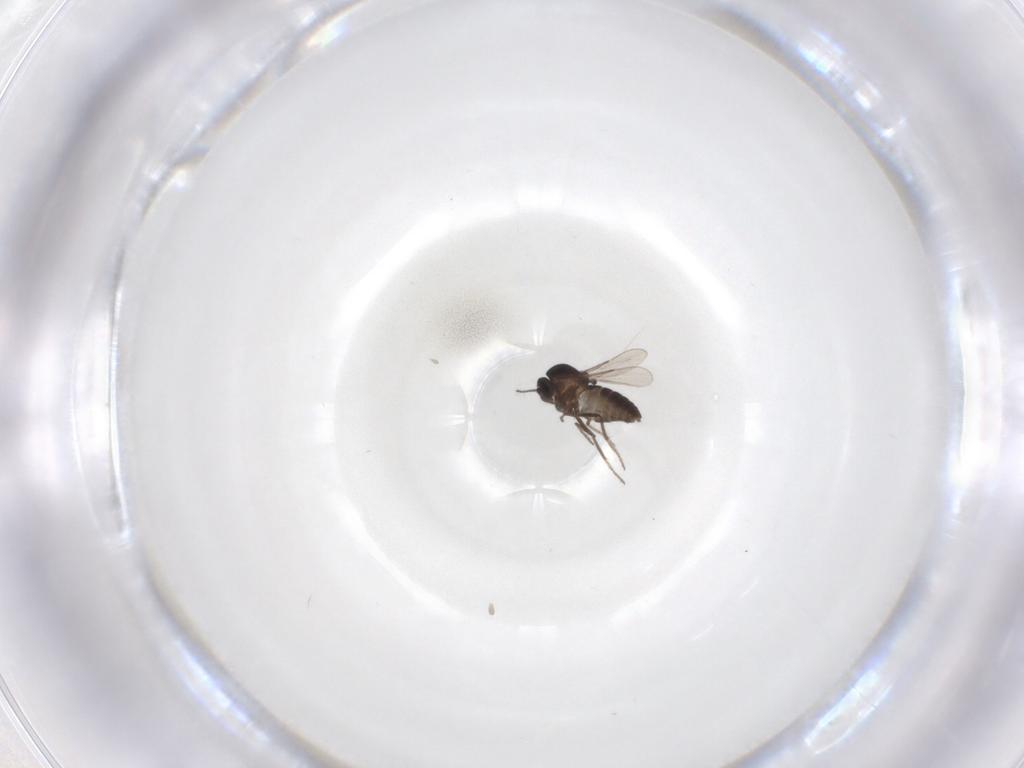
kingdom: Animalia
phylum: Arthropoda
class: Insecta
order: Diptera
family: Ceratopogonidae
